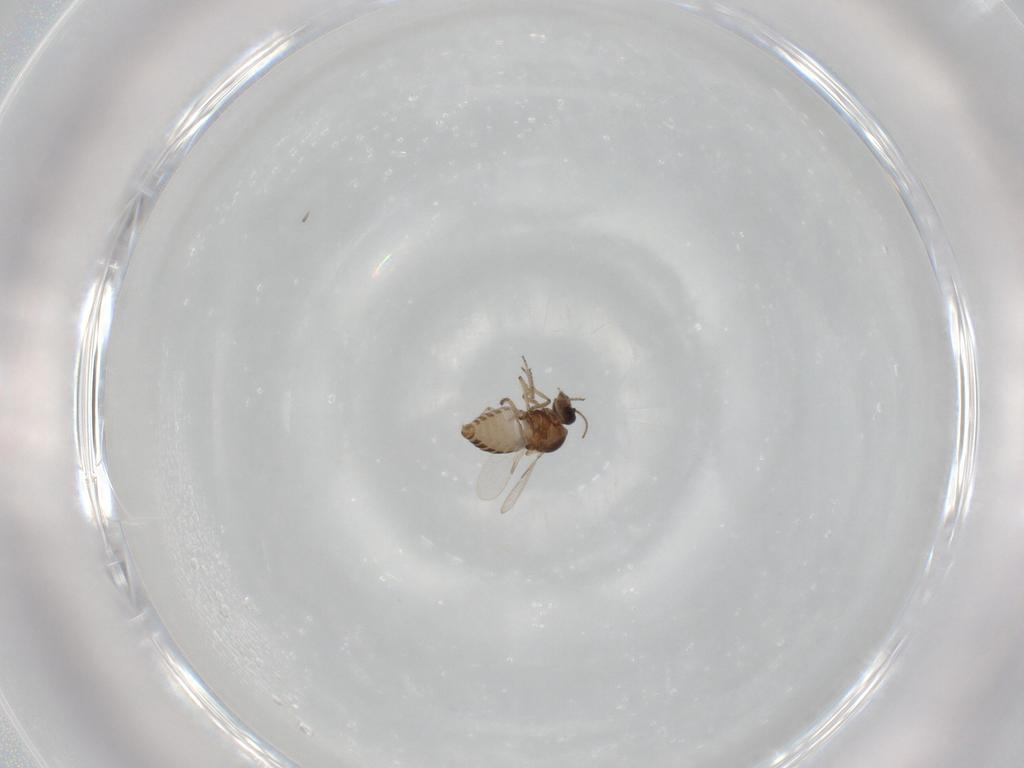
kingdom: Animalia
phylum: Arthropoda
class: Insecta
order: Diptera
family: Ceratopogonidae
